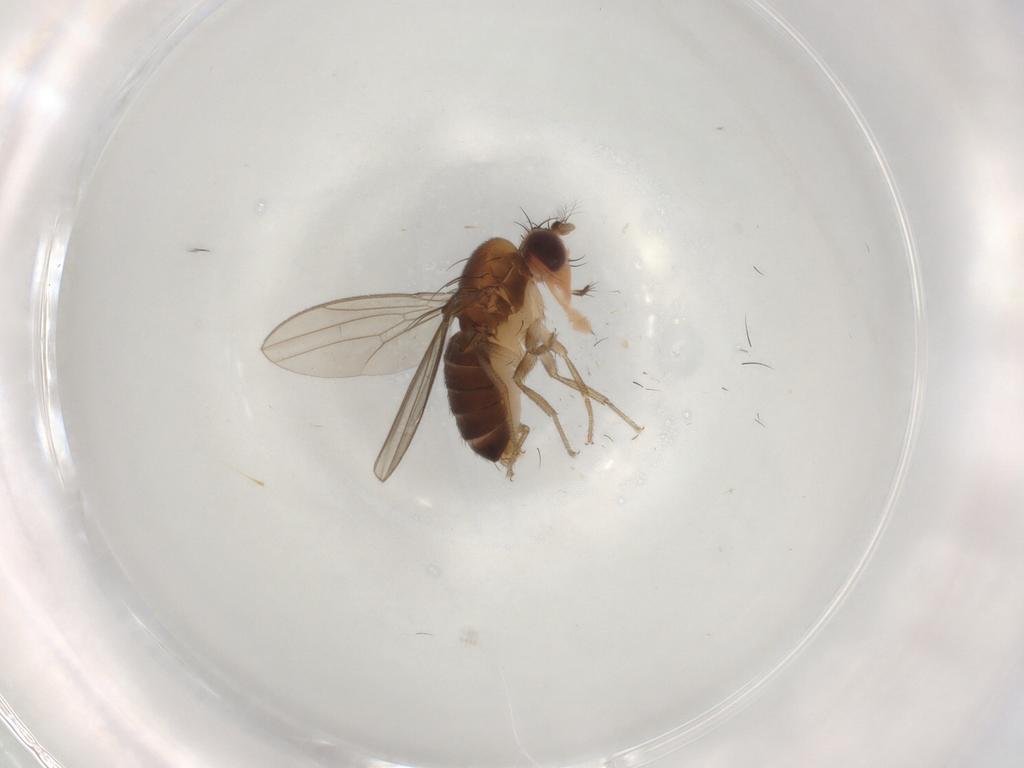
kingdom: Animalia
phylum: Arthropoda
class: Insecta
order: Diptera
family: Drosophilidae
